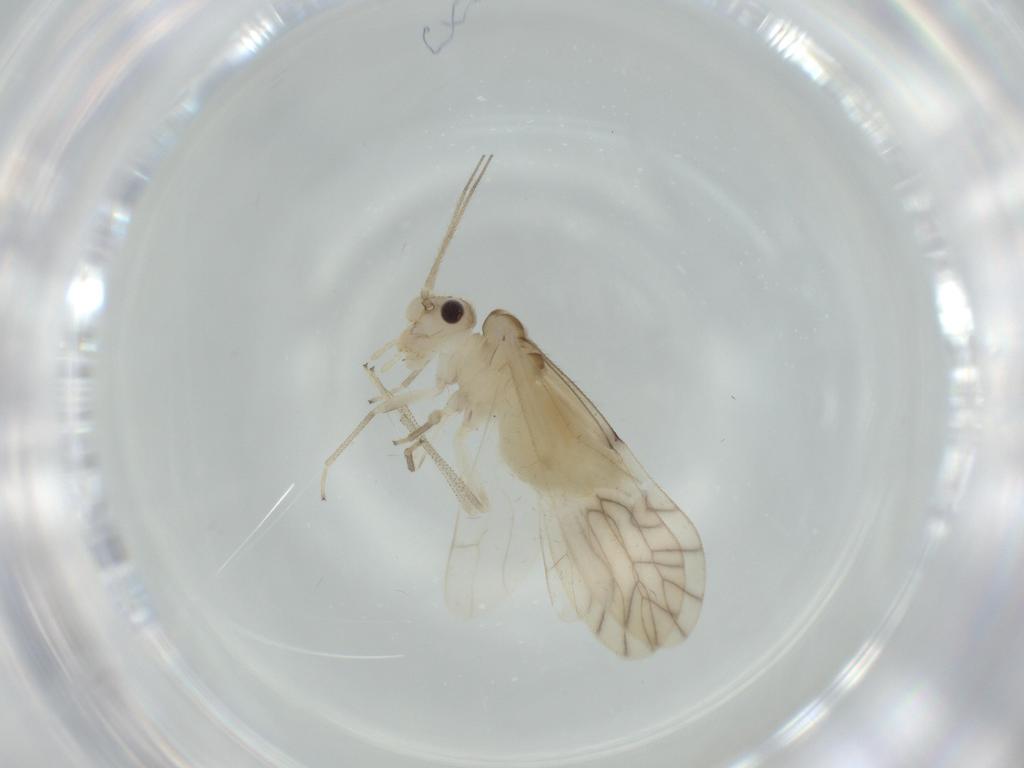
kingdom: Animalia
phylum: Arthropoda
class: Insecta
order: Psocodea
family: Caeciliusidae
